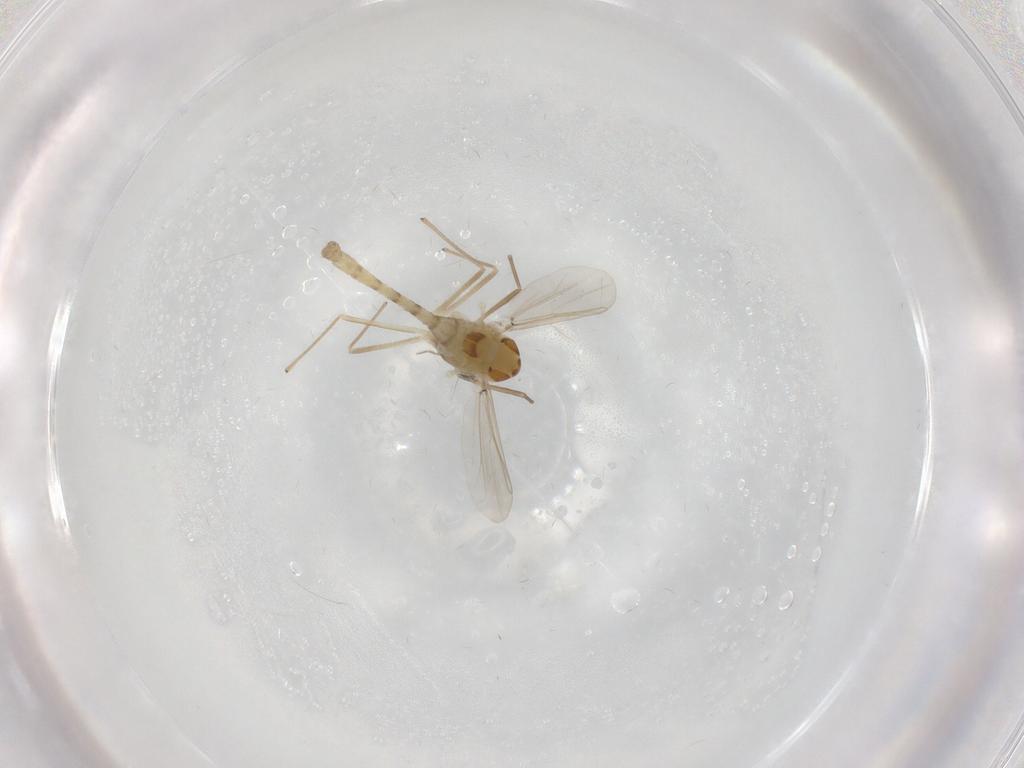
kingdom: Animalia
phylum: Arthropoda
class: Insecta
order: Diptera
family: Chironomidae
